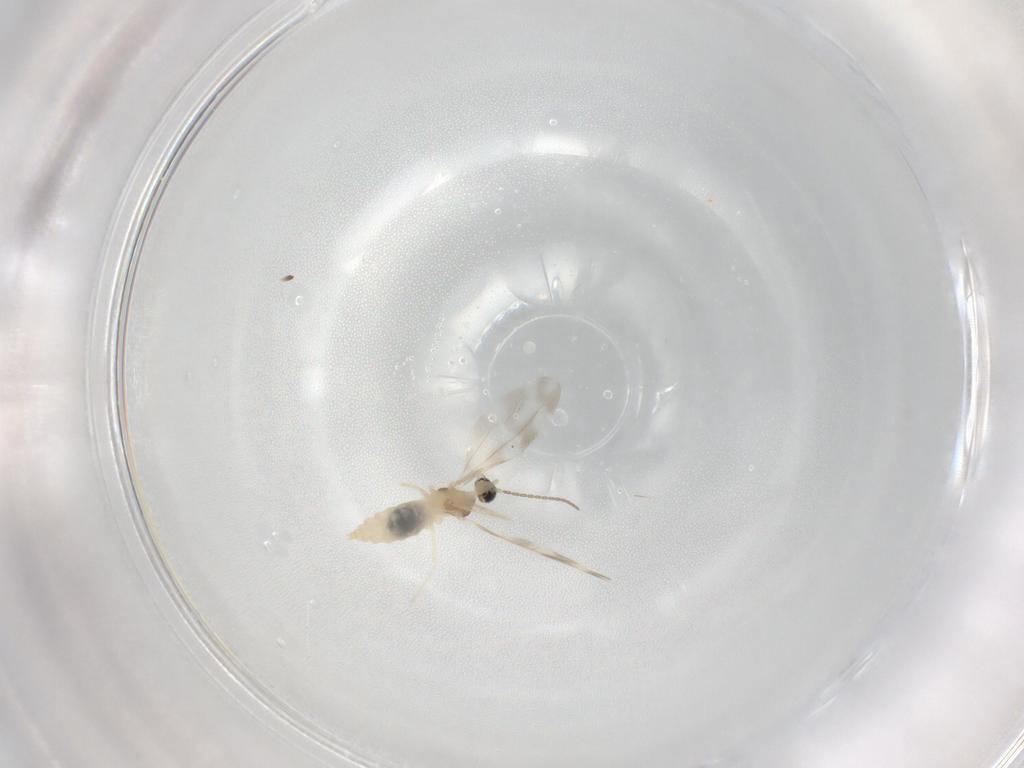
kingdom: Animalia
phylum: Arthropoda
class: Insecta
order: Diptera
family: Cecidomyiidae
